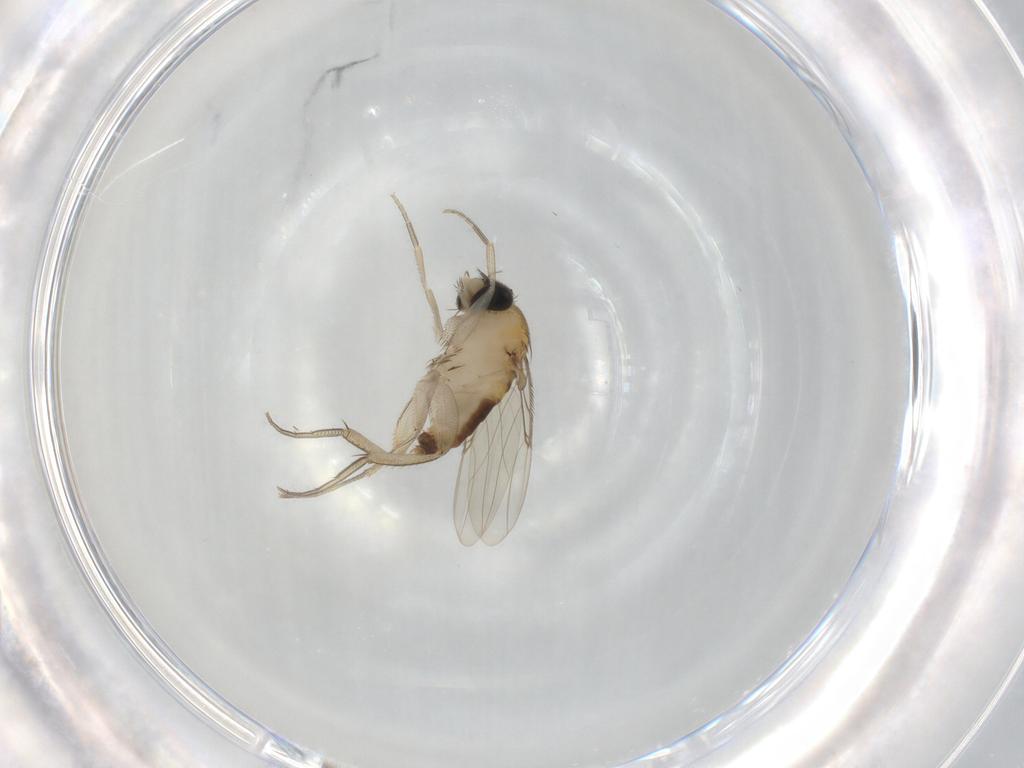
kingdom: Animalia
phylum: Arthropoda
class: Insecta
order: Diptera
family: Phoridae
